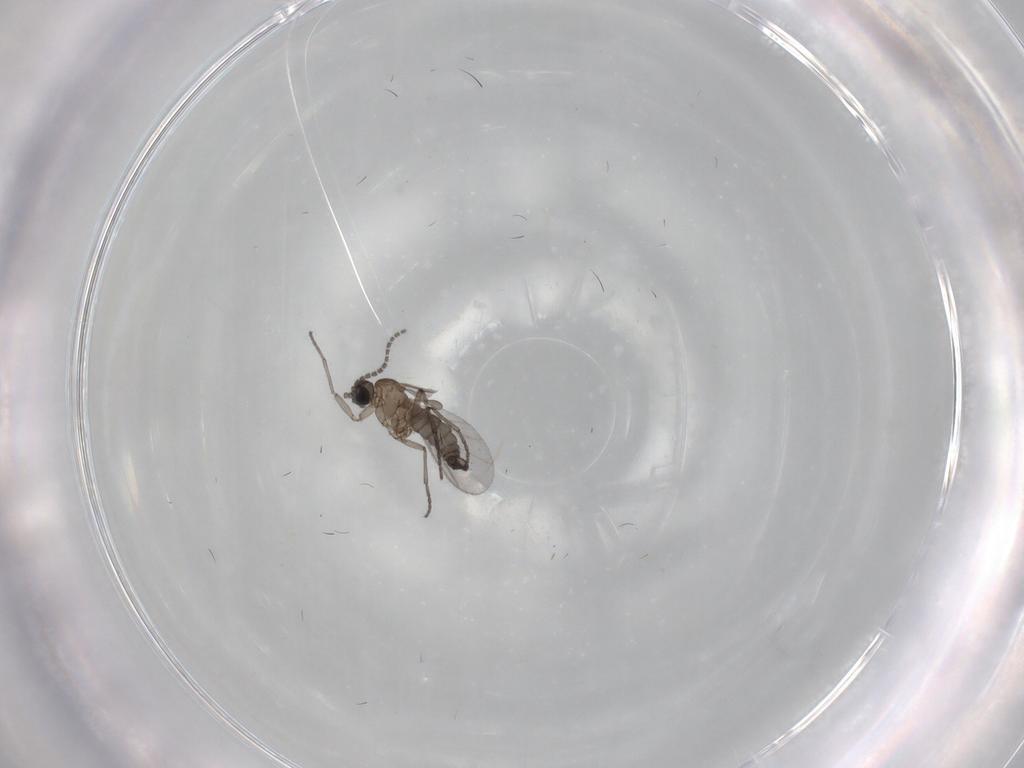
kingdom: Animalia
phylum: Arthropoda
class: Insecta
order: Diptera
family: Sciaridae
